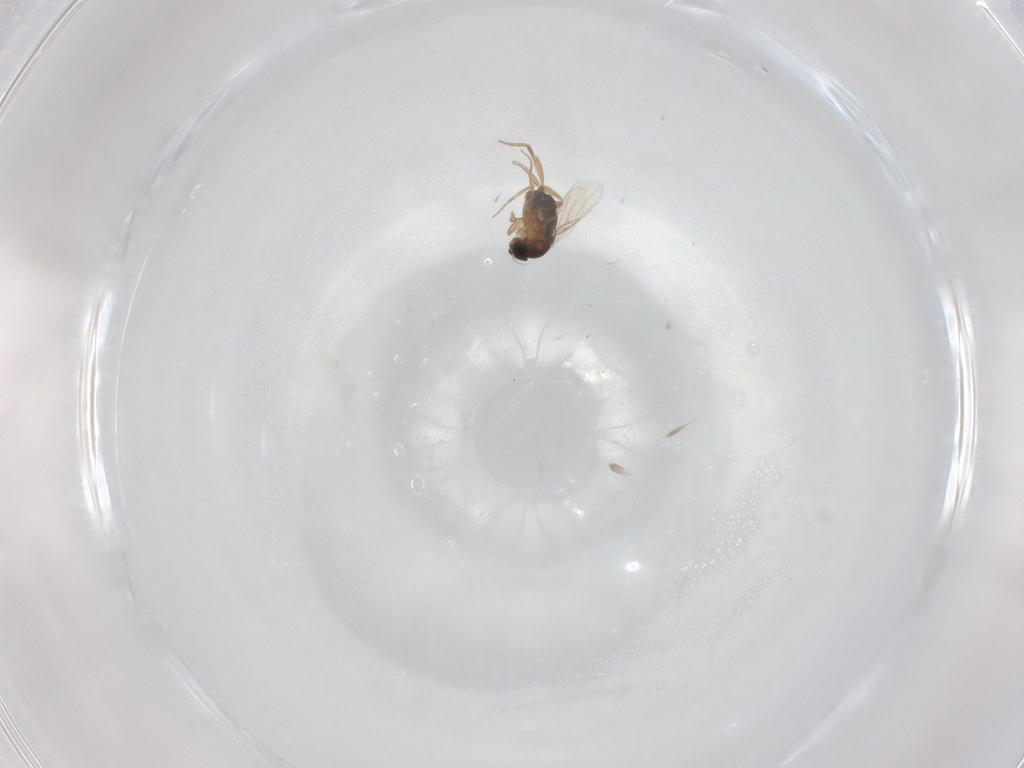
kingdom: Animalia
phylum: Arthropoda
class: Insecta
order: Diptera
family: Phoridae
